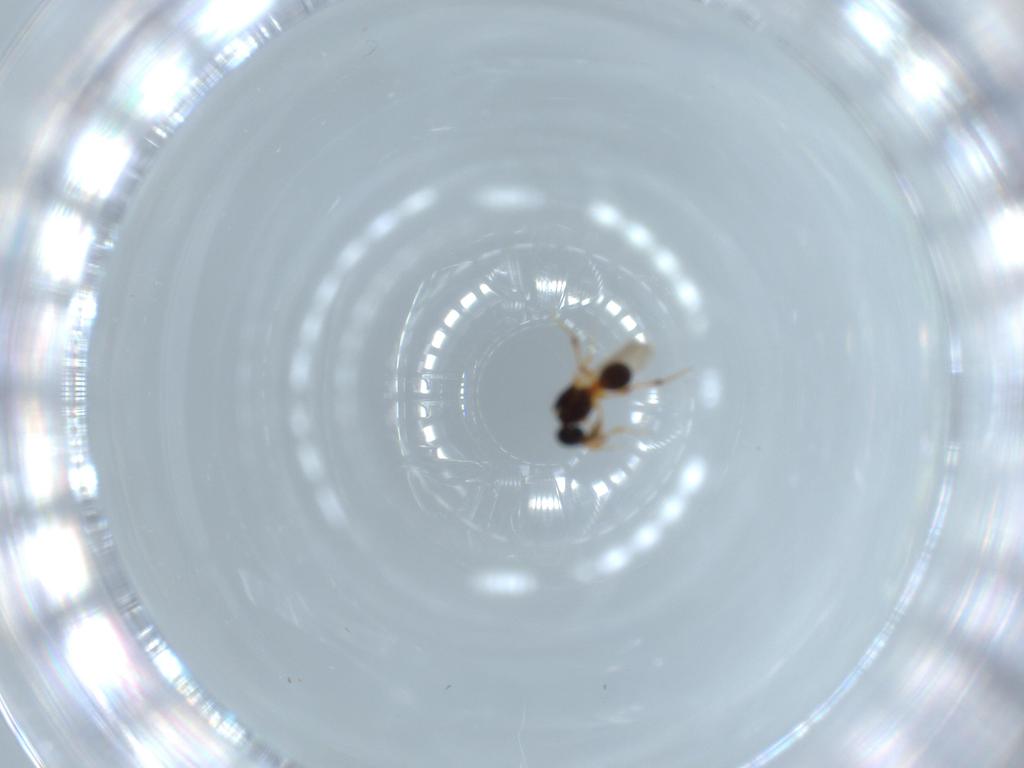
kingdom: Animalia
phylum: Arthropoda
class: Insecta
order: Hymenoptera
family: Platygastridae
